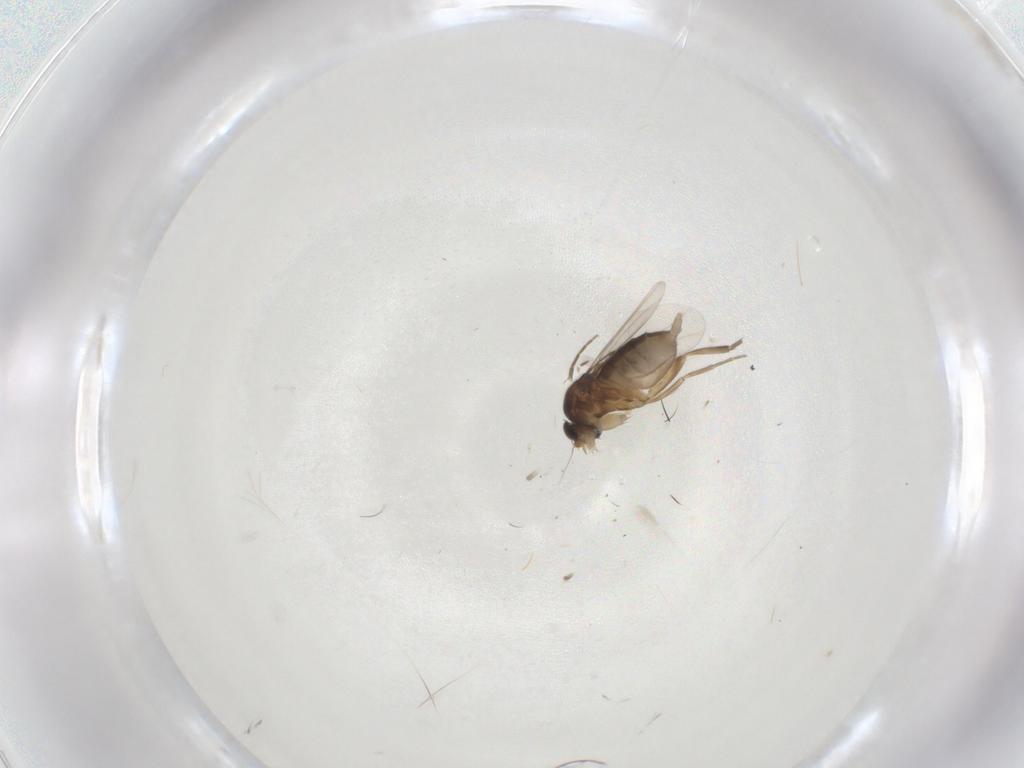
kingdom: Animalia
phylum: Arthropoda
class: Insecta
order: Diptera
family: Phoridae
